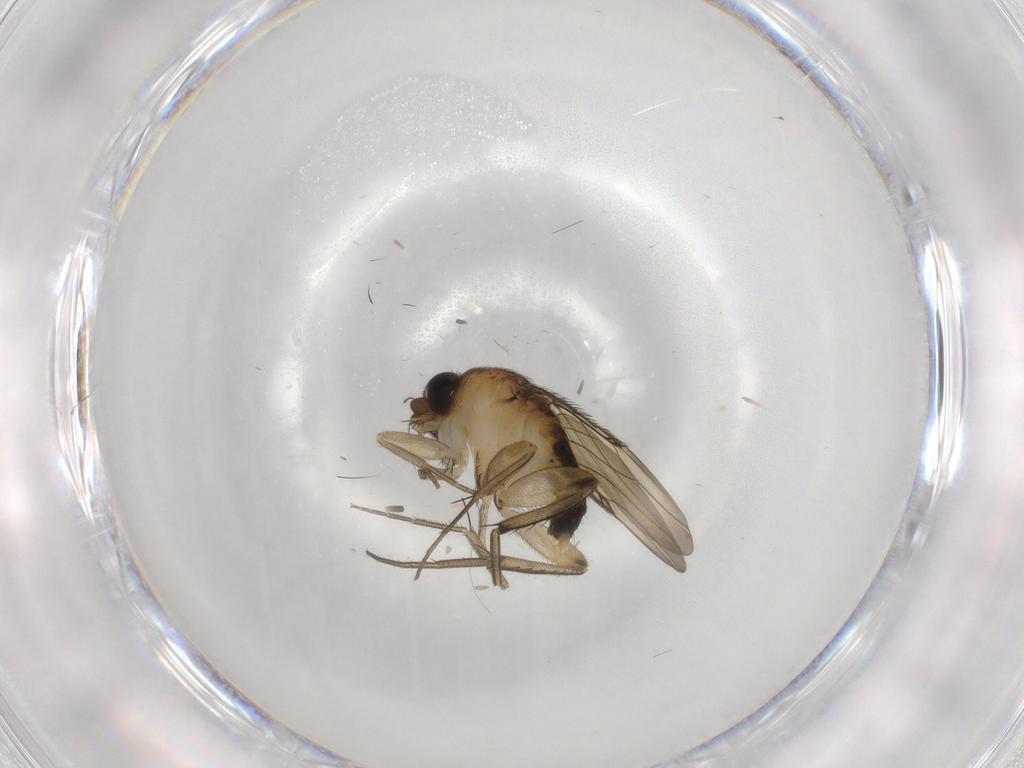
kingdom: Animalia
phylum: Arthropoda
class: Insecta
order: Diptera
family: Phoridae
